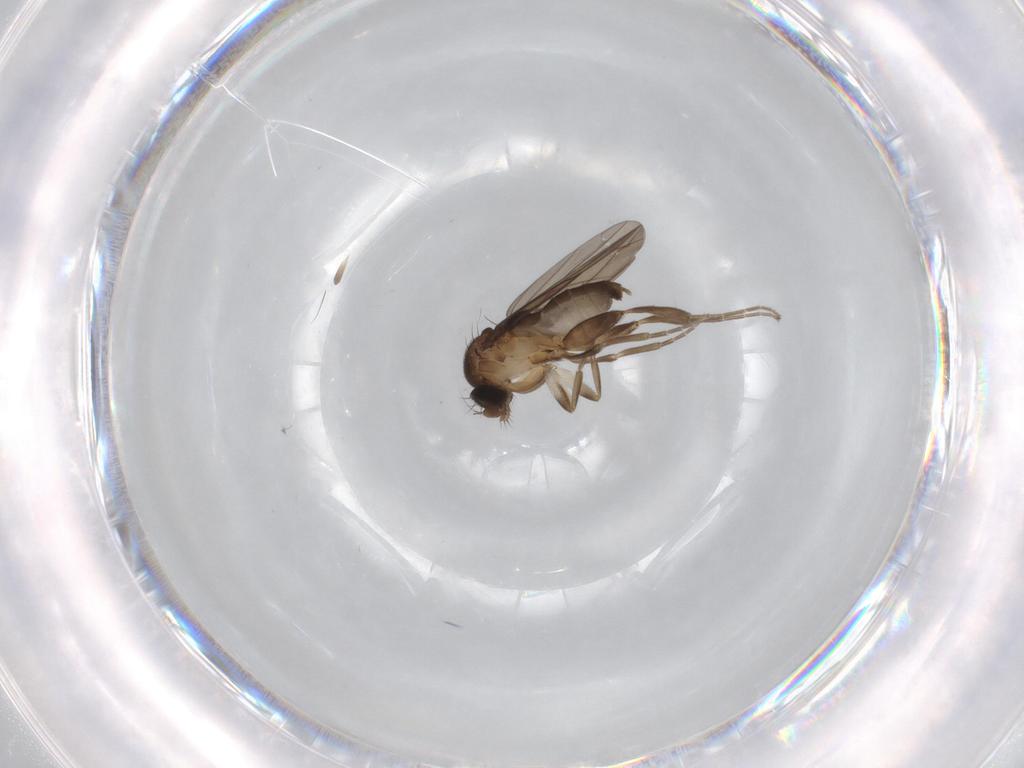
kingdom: Animalia
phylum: Arthropoda
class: Insecta
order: Diptera
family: Limoniidae
